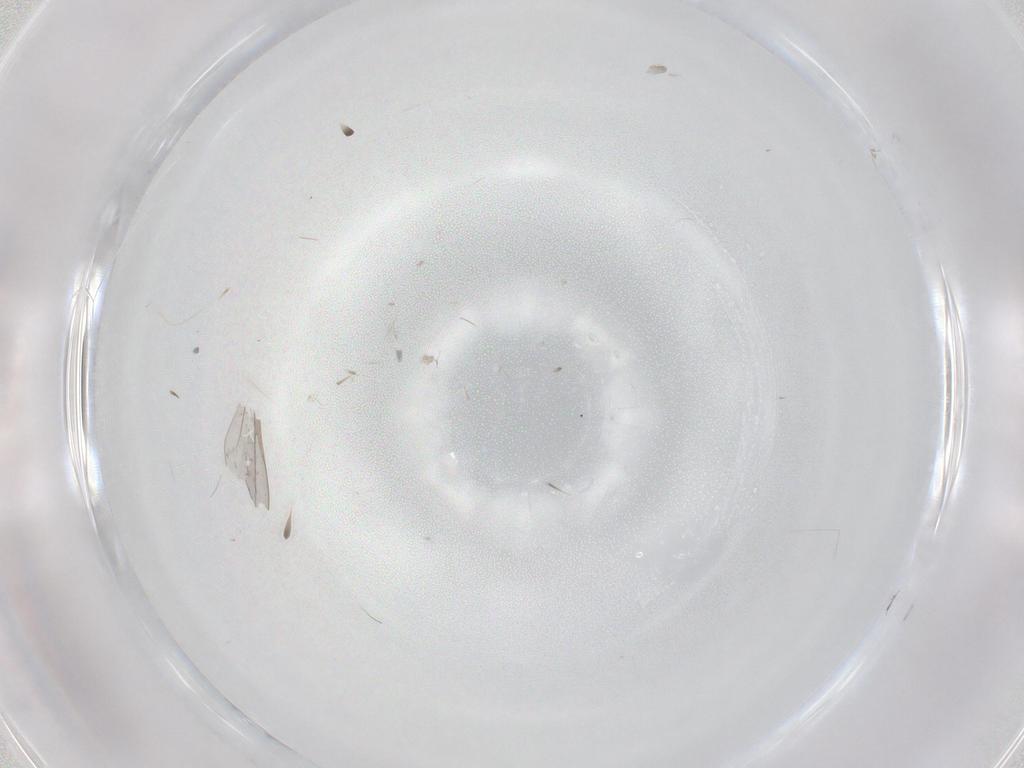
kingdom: Animalia
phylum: Arthropoda
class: Insecta
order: Diptera
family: Cecidomyiidae
